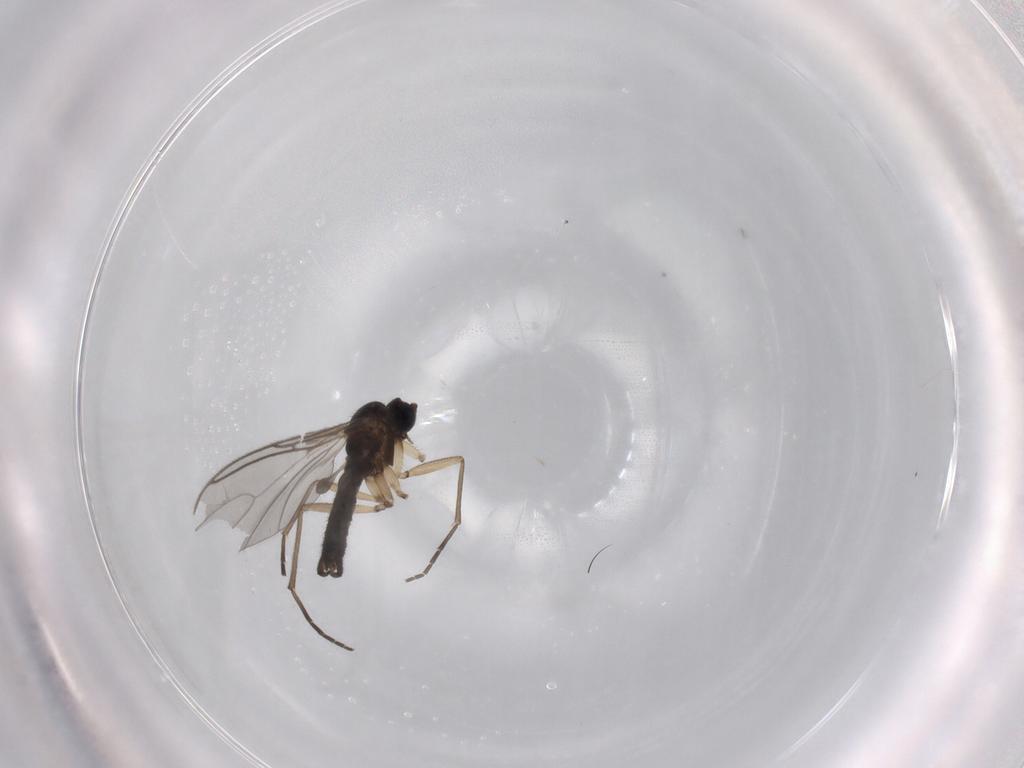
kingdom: Animalia
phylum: Arthropoda
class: Insecta
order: Diptera
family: Sciaridae
